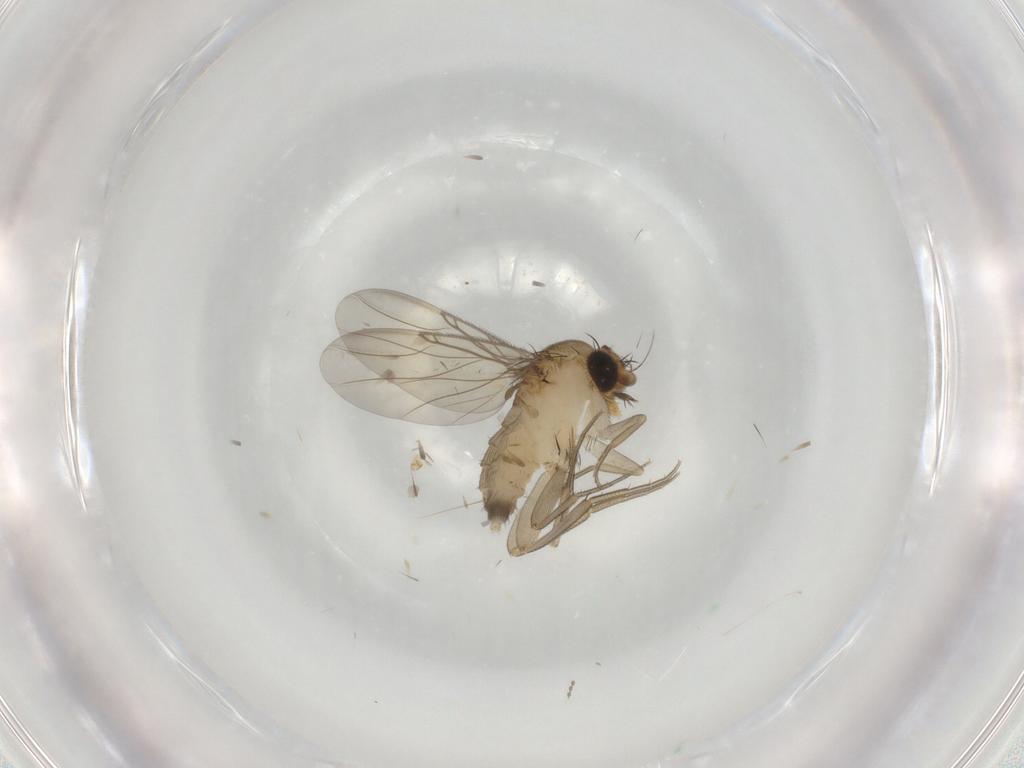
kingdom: Animalia
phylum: Arthropoda
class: Insecta
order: Diptera
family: Phoridae
